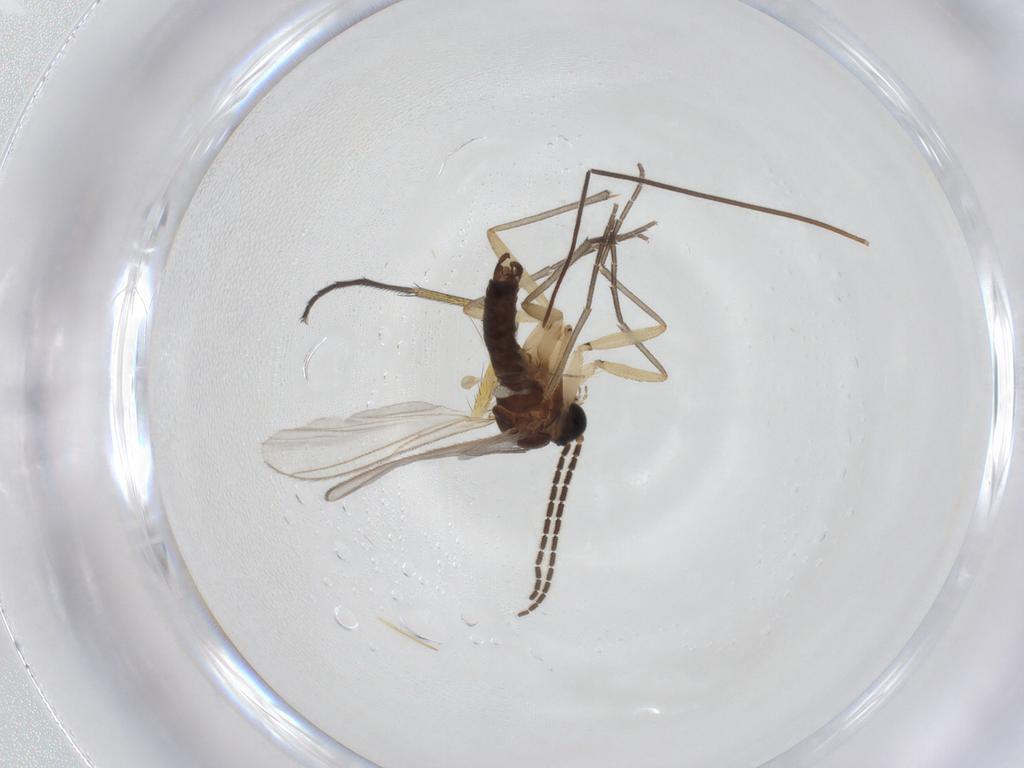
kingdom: Animalia
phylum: Arthropoda
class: Insecta
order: Diptera
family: Sciaridae
